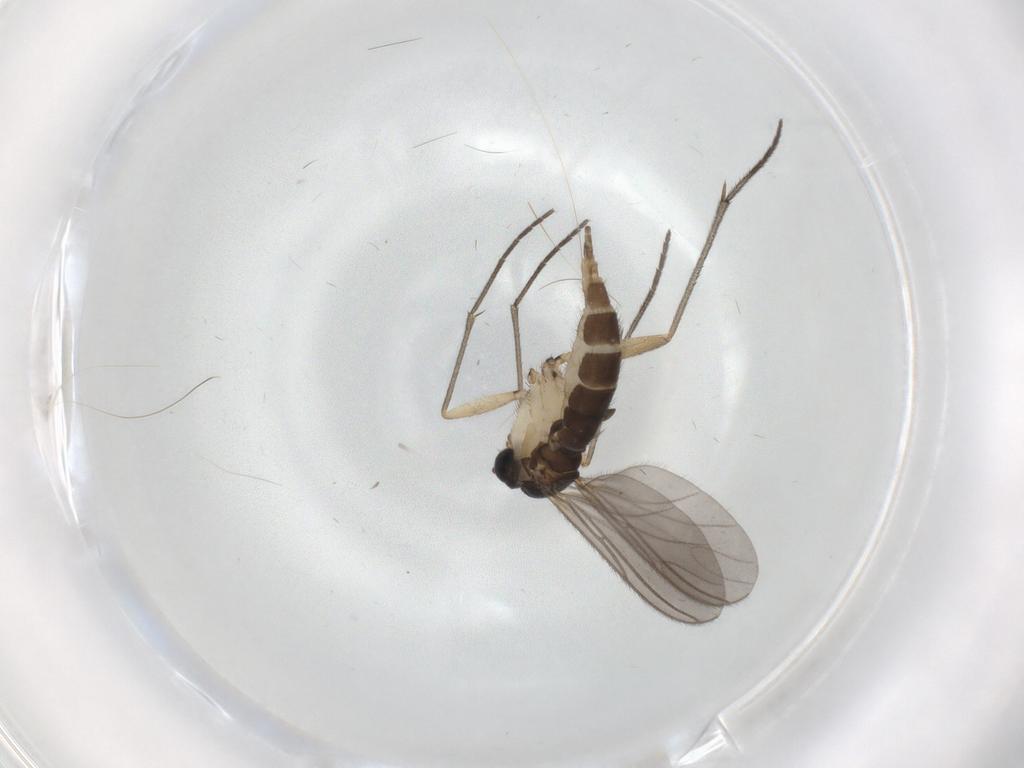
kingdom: Animalia
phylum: Arthropoda
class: Insecta
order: Diptera
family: Sciaridae
